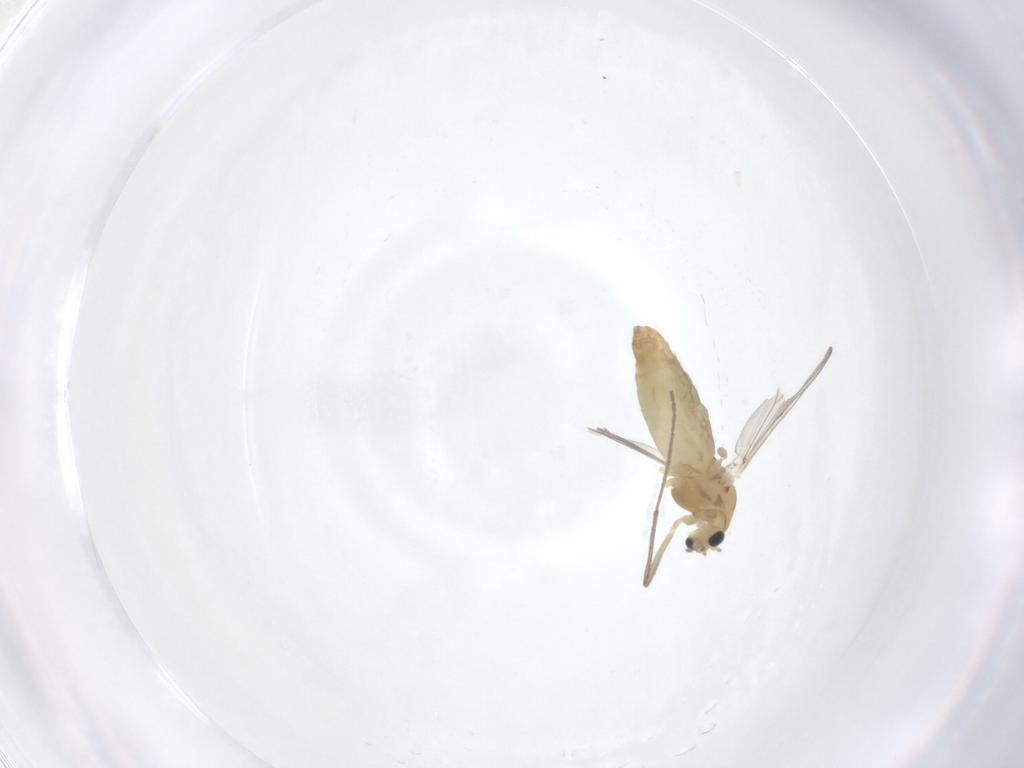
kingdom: Animalia
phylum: Arthropoda
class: Insecta
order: Diptera
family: Chironomidae
